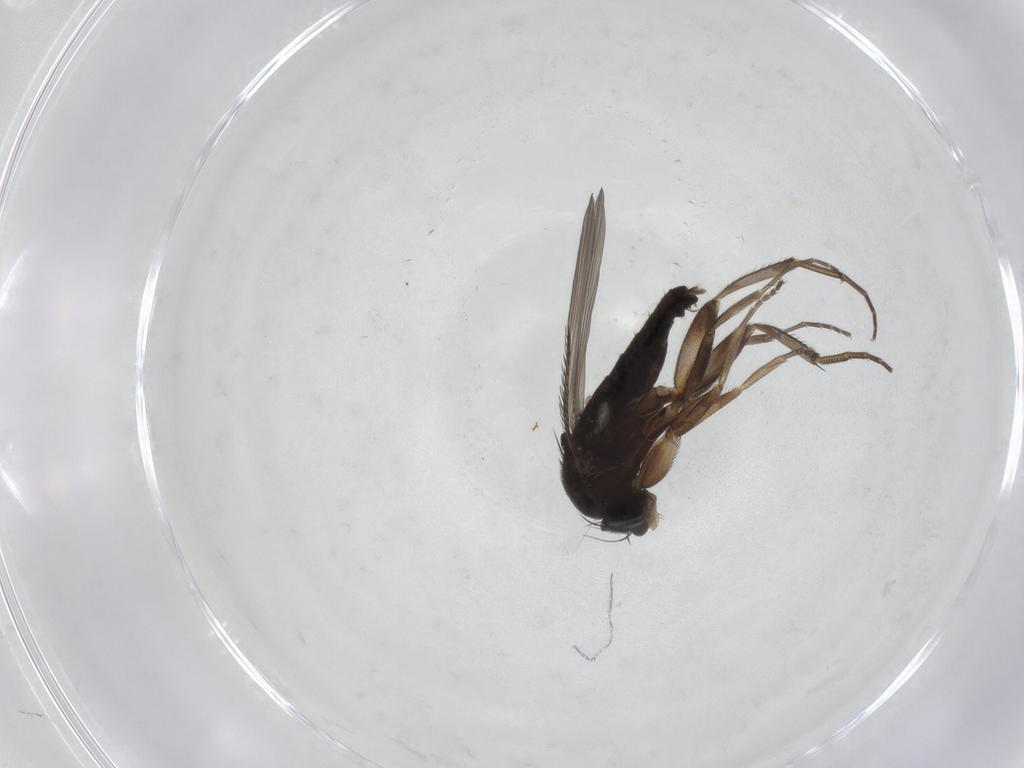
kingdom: Animalia
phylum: Arthropoda
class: Insecta
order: Diptera
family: Phoridae
